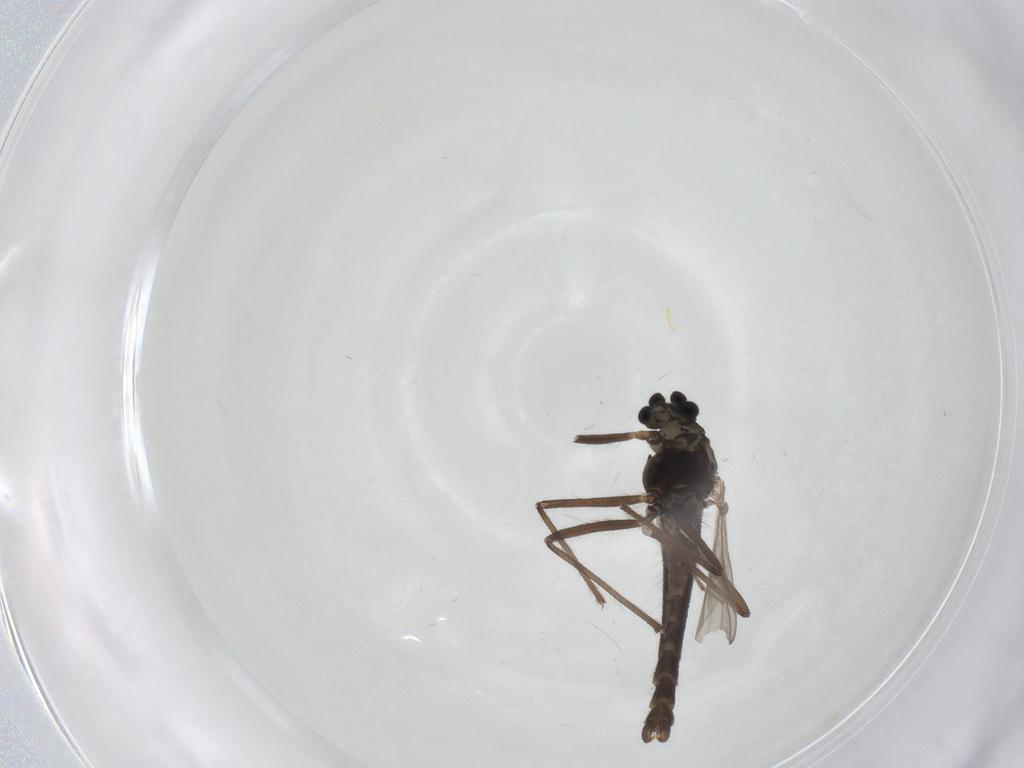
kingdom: Animalia
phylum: Arthropoda
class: Insecta
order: Diptera
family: Chironomidae
